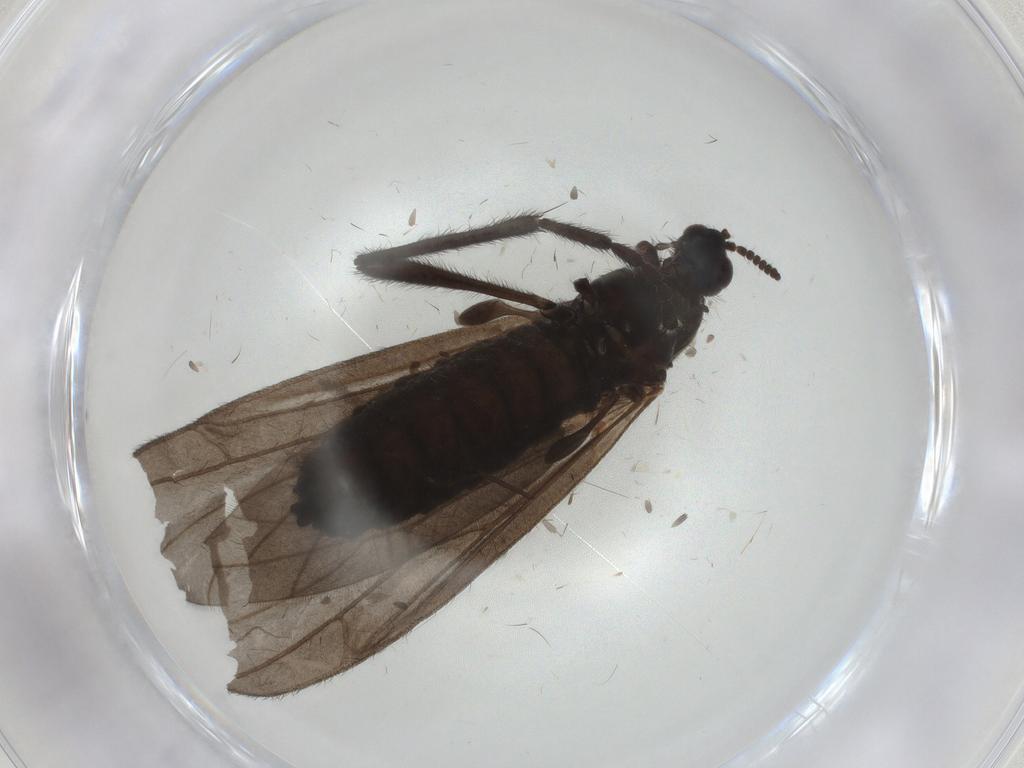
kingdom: Animalia
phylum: Arthropoda
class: Insecta
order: Diptera
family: Bibionidae
